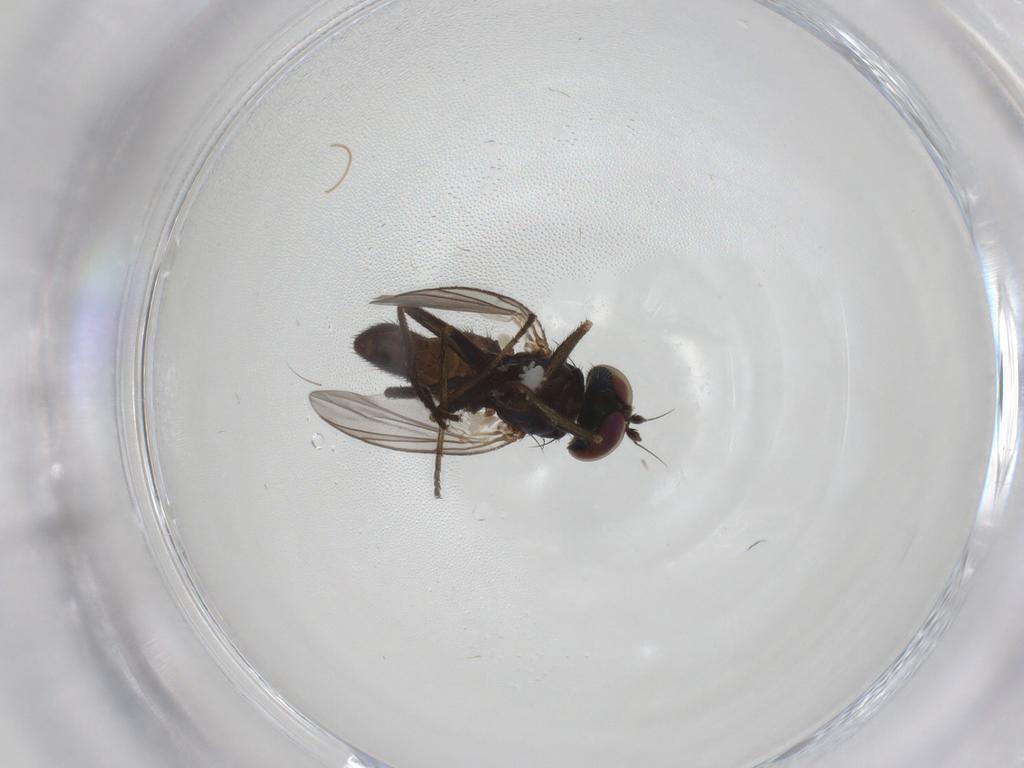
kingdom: Animalia
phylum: Arthropoda
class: Insecta
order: Diptera
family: Dolichopodidae
